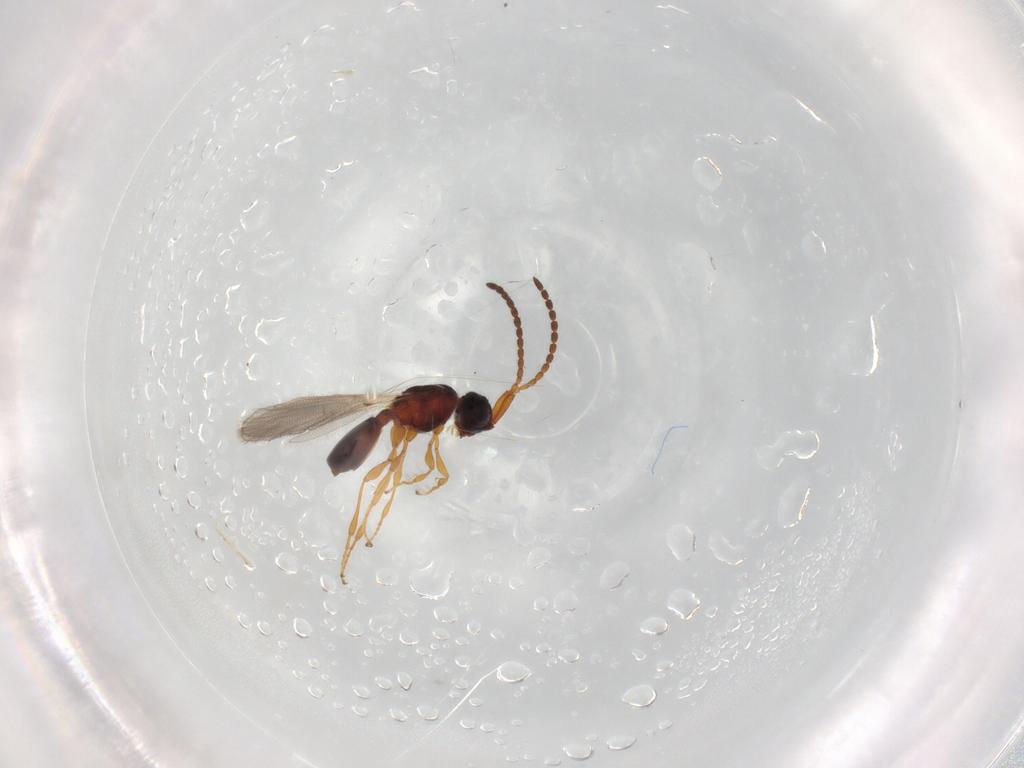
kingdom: Animalia
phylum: Arthropoda
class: Insecta
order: Hymenoptera
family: Diapriidae
